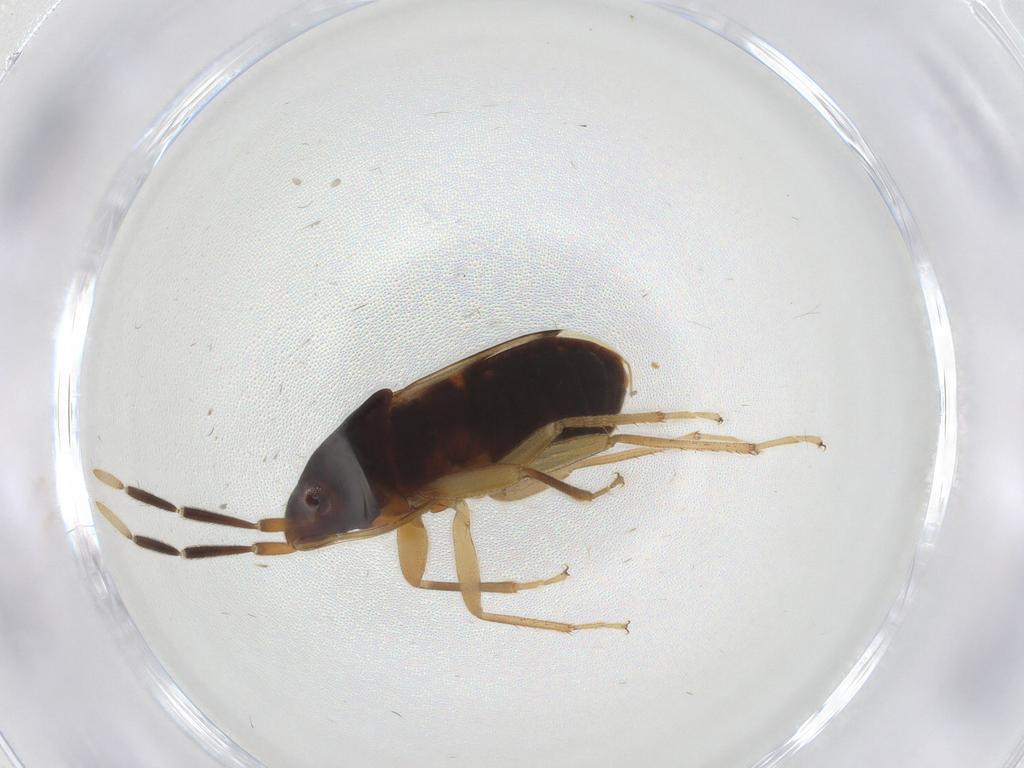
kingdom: Animalia
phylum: Arthropoda
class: Insecta
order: Hemiptera
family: Rhyparochromidae
